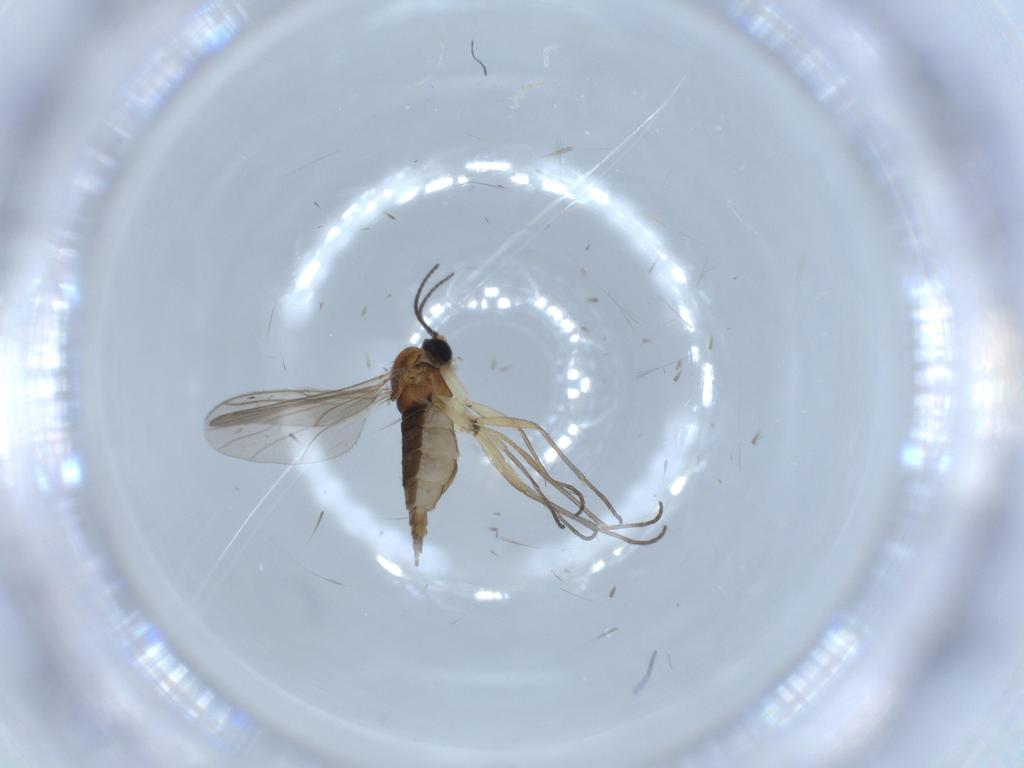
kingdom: Animalia
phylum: Arthropoda
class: Insecta
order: Diptera
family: Sciaridae
